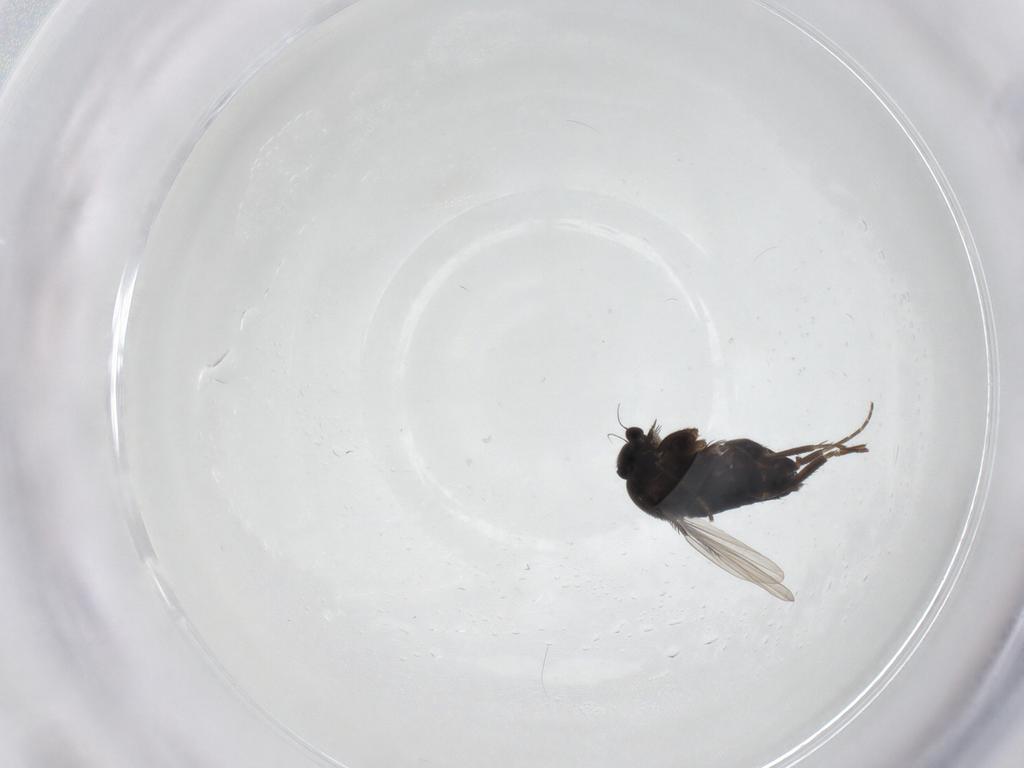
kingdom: Animalia
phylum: Arthropoda
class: Insecta
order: Diptera
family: Phoridae
